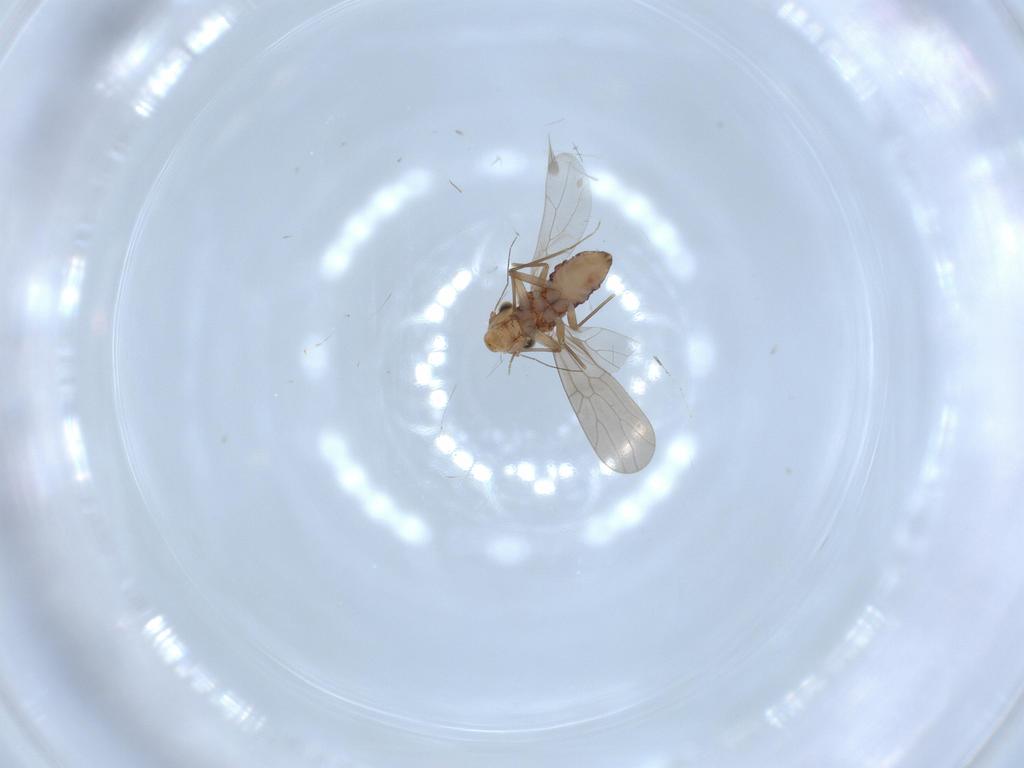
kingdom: Animalia
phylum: Arthropoda
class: Insecta
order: Psocodea
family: Lepidopsocidae
